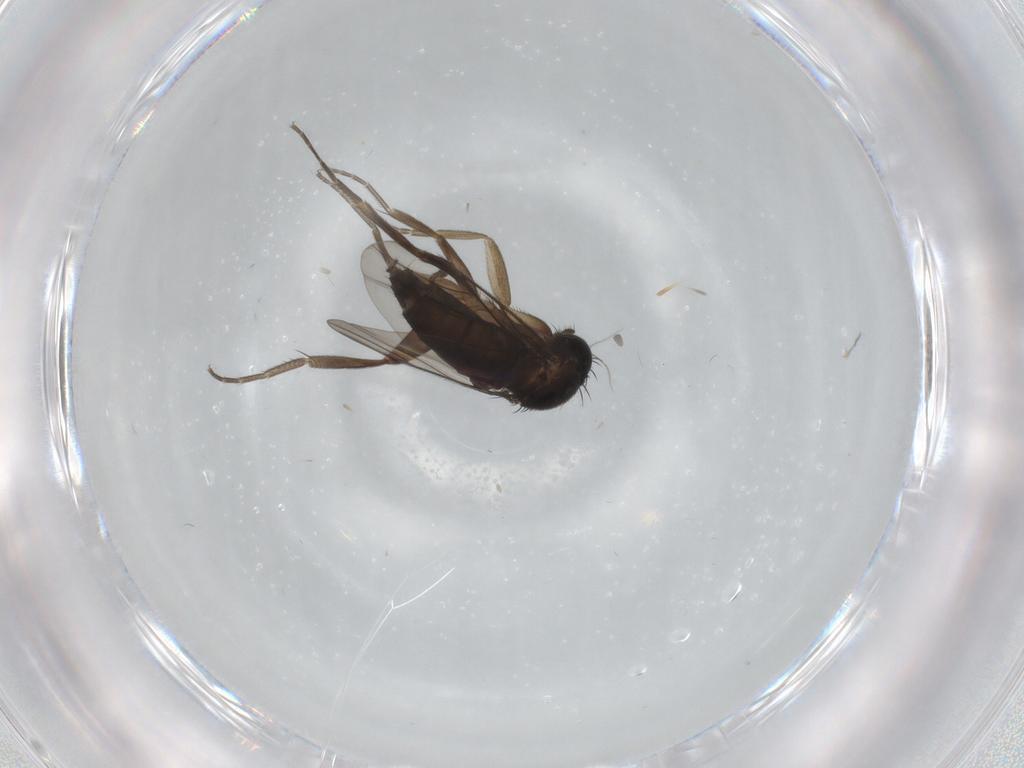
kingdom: Animalia
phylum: Arthropoda
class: Insecta
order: Diptera
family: Phoridae
